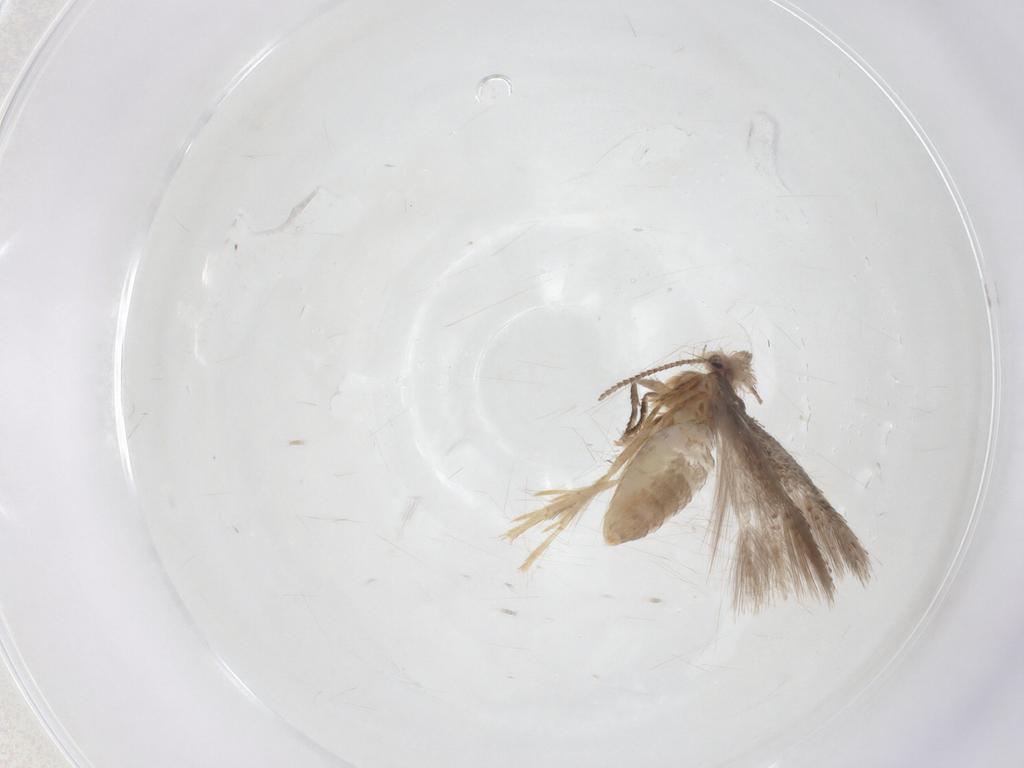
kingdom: Animalia
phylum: Arthropoda
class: Insecta
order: Lepidoptera
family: Nepticulidae
